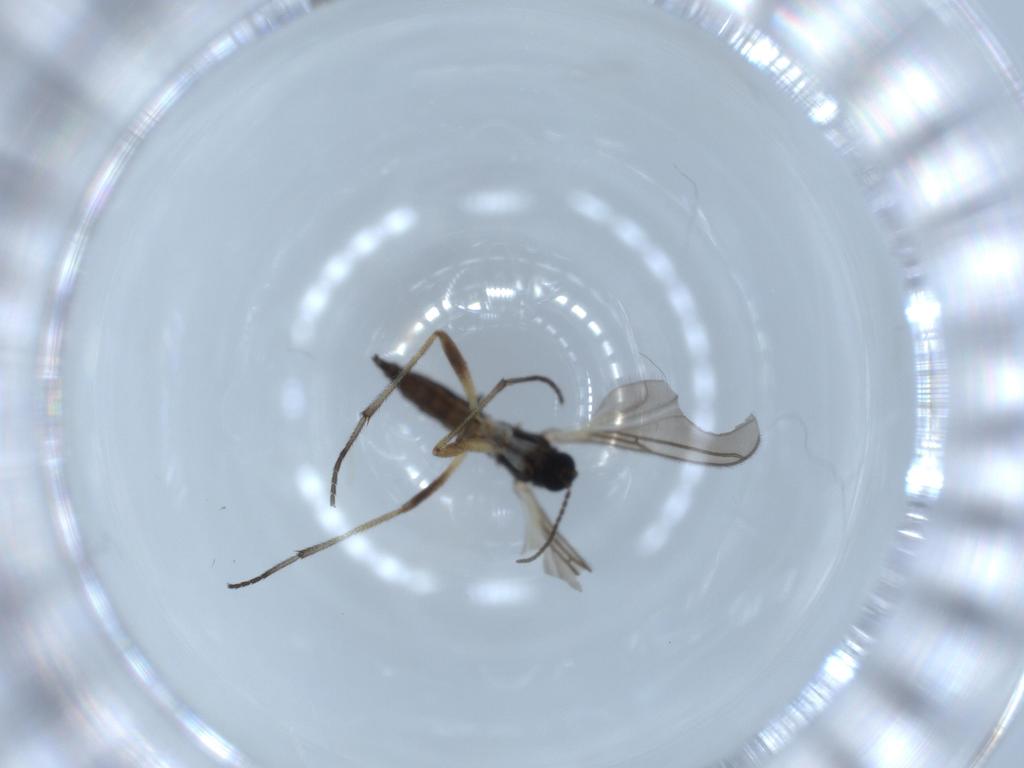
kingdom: Animalia
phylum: Arthropoda
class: Insecta
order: Diptera
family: Sciaridae
